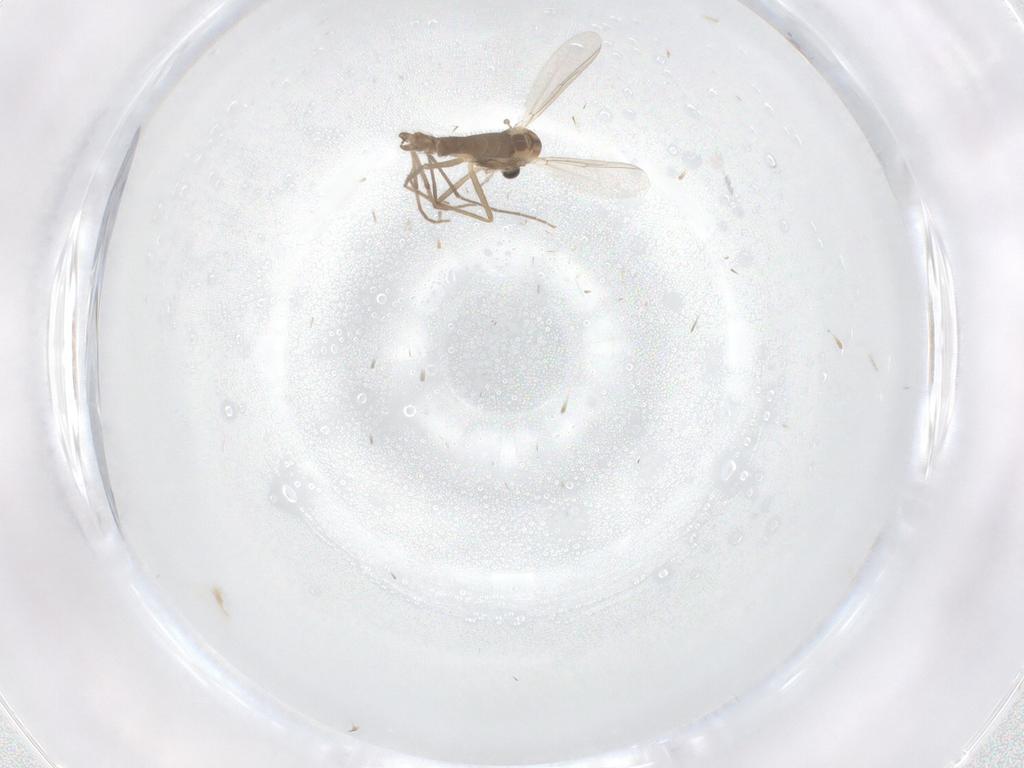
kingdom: Animalia
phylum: Arthropoda
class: Insecta
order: Diptera
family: Chironomidae
